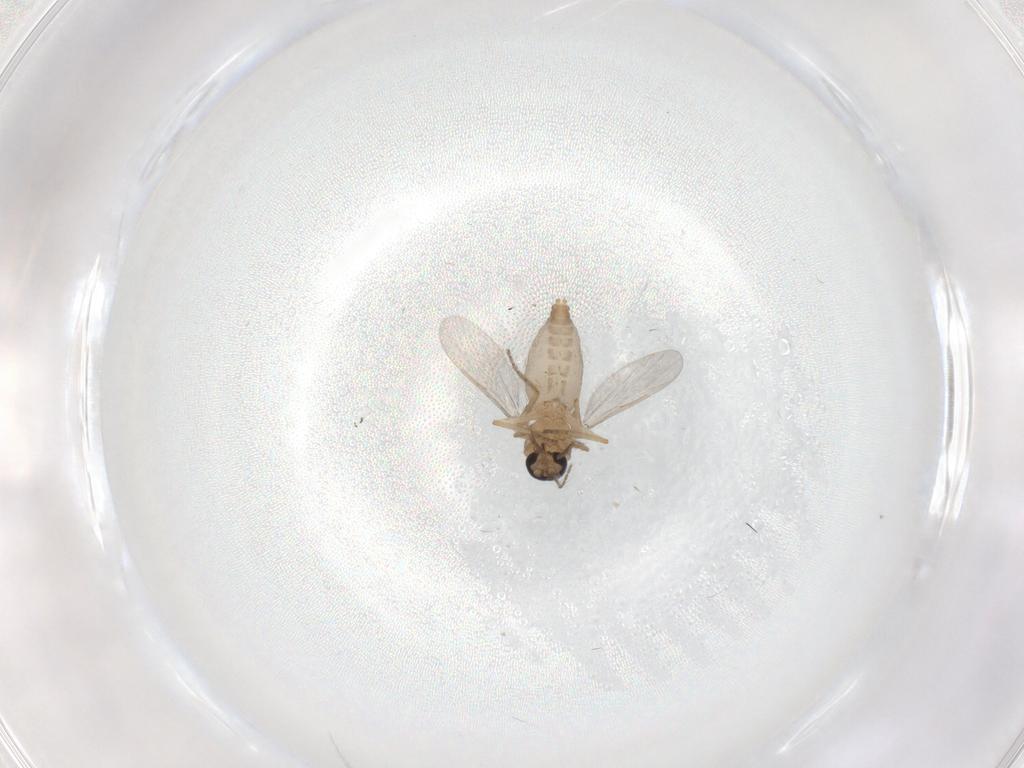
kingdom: Animalia
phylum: Arthropoda
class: Insecta
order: Diptera
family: Ceratopogonidae
